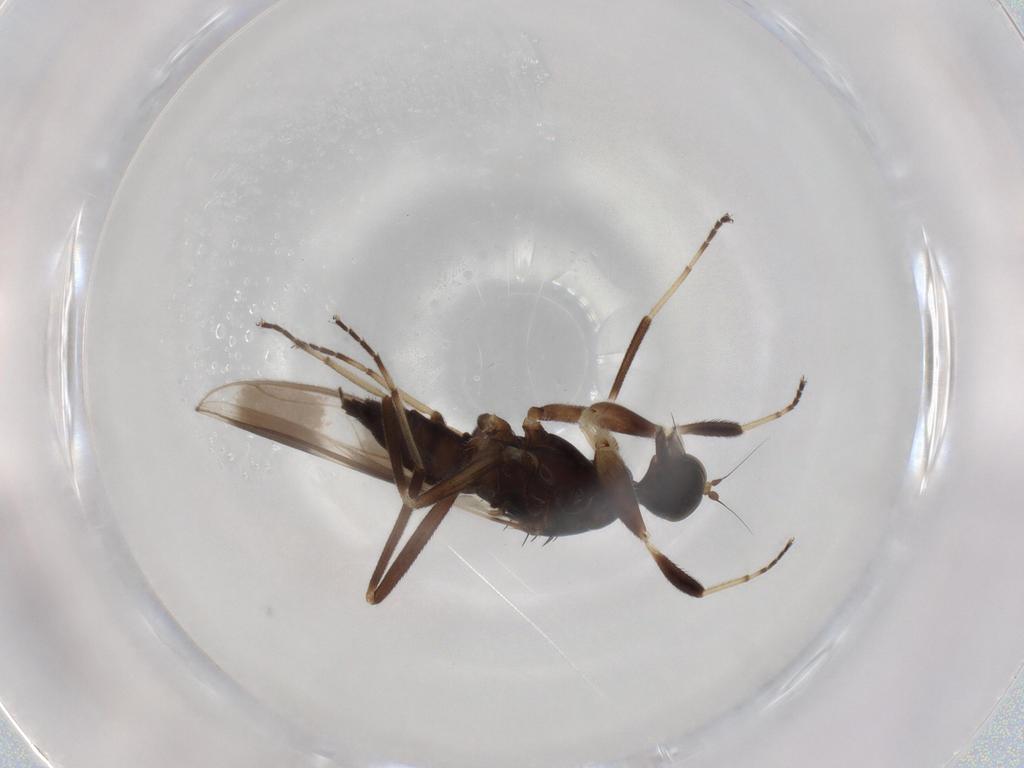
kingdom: Animalia
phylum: Arthropoda
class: Insecta
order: Diptera
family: Hybotidae
